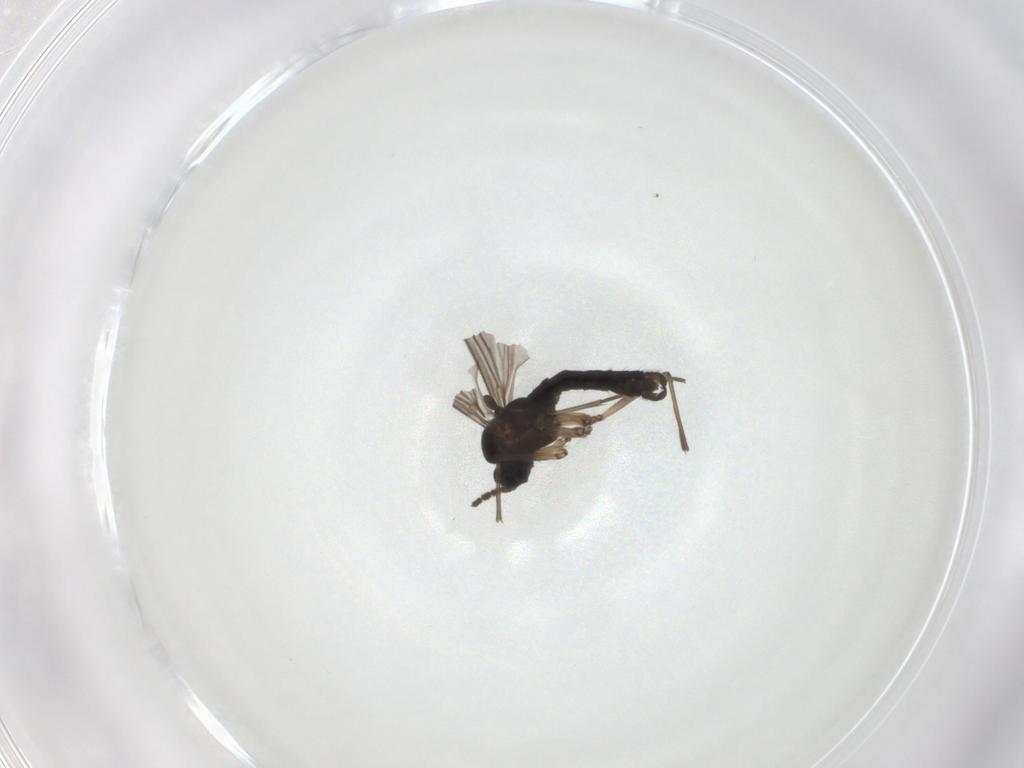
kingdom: Animalia
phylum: Arthropoda
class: Insecta
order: Diptera
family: Sciaridae
